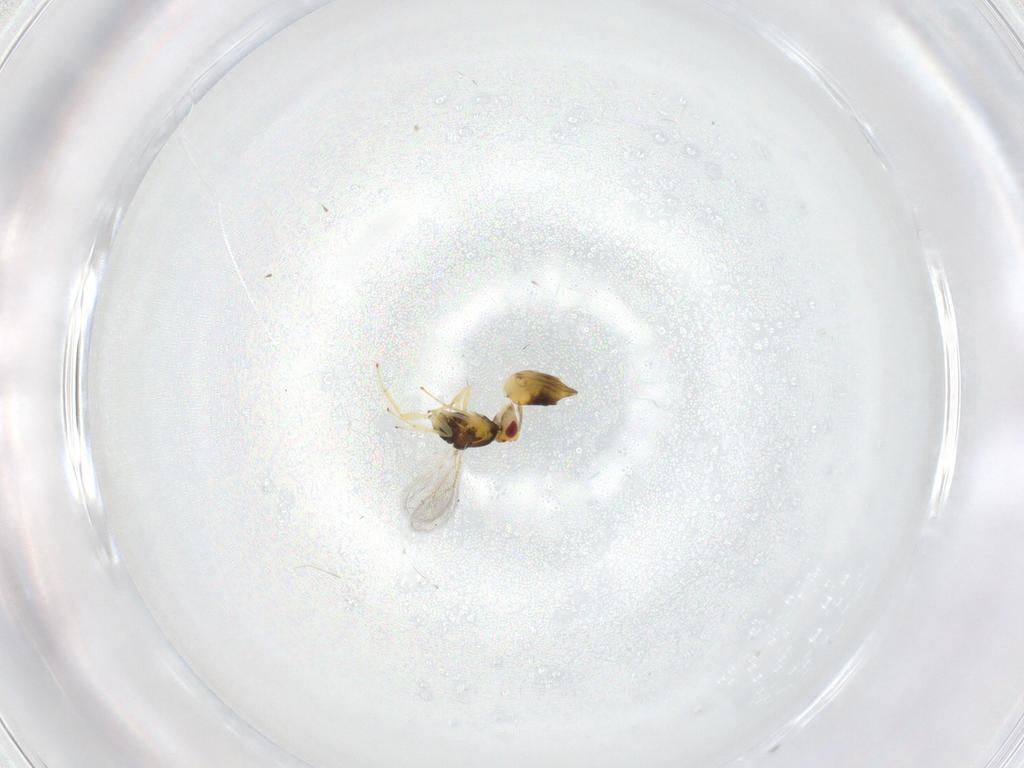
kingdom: Animalia
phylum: Arthropoda
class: Insecta
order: Hymenoptera
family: Eulophidae
